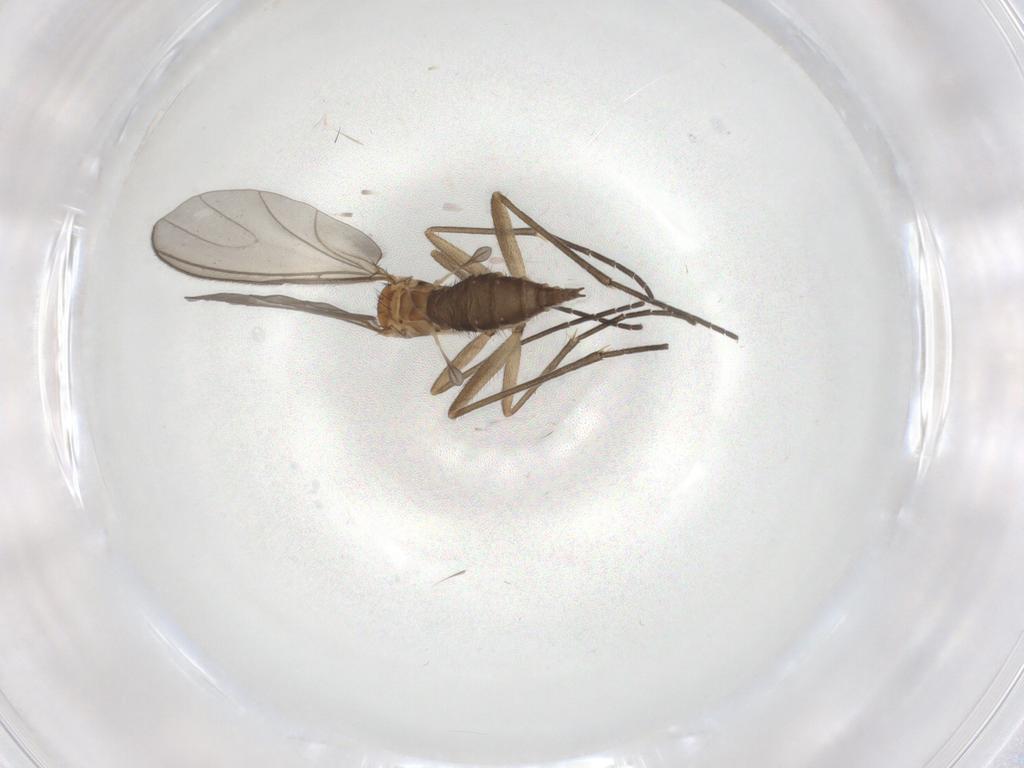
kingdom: Animalia
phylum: Arthropoda
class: Insecta
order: Diptera
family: Sciaridae
